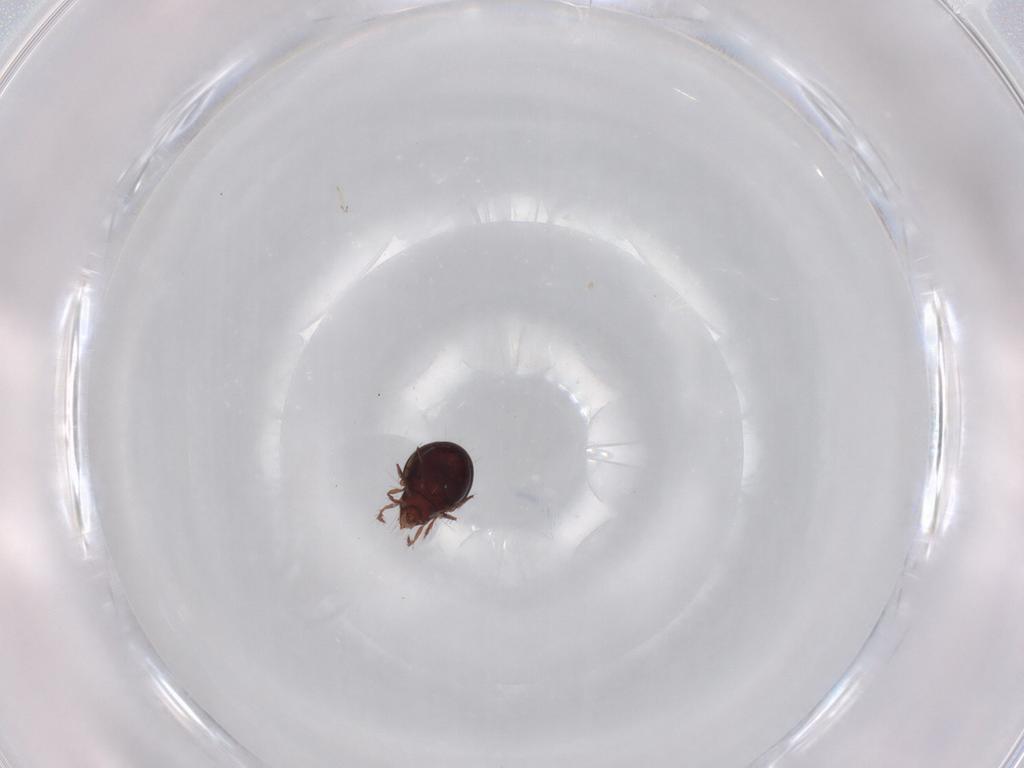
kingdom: Animalia
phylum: Arthropoda
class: Arachnida
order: Sarcoptiformes
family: Ceratoppiidae
